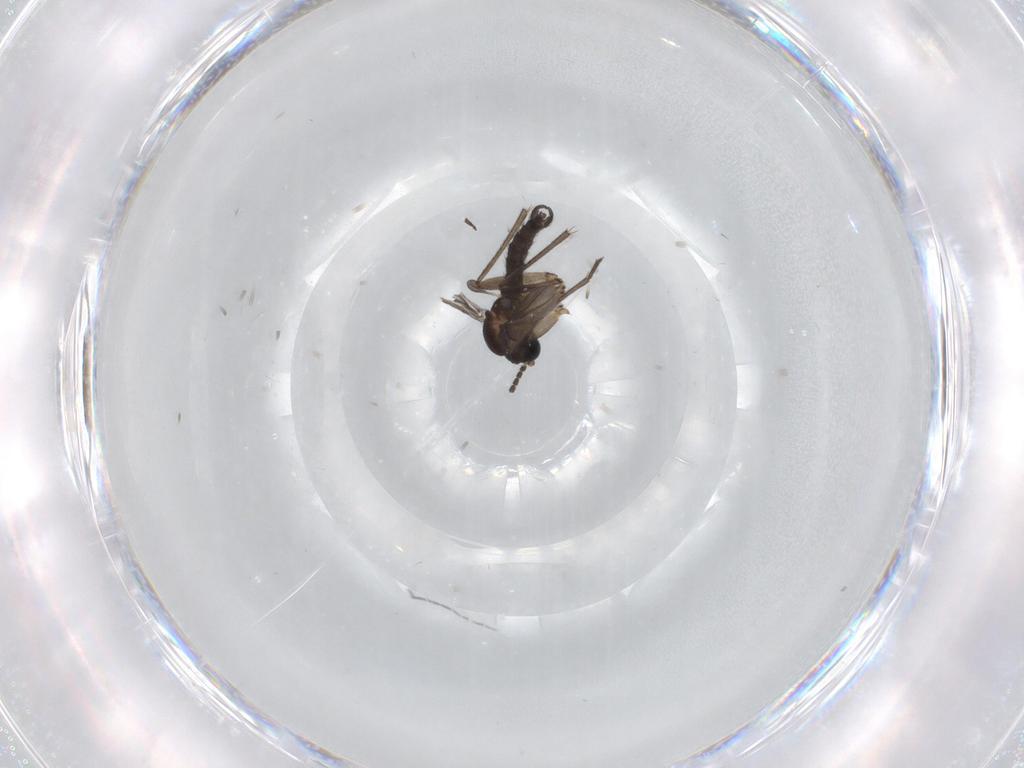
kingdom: Animalia
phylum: Arthropoda
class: Insecta
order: Diptera
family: Sciaridae
